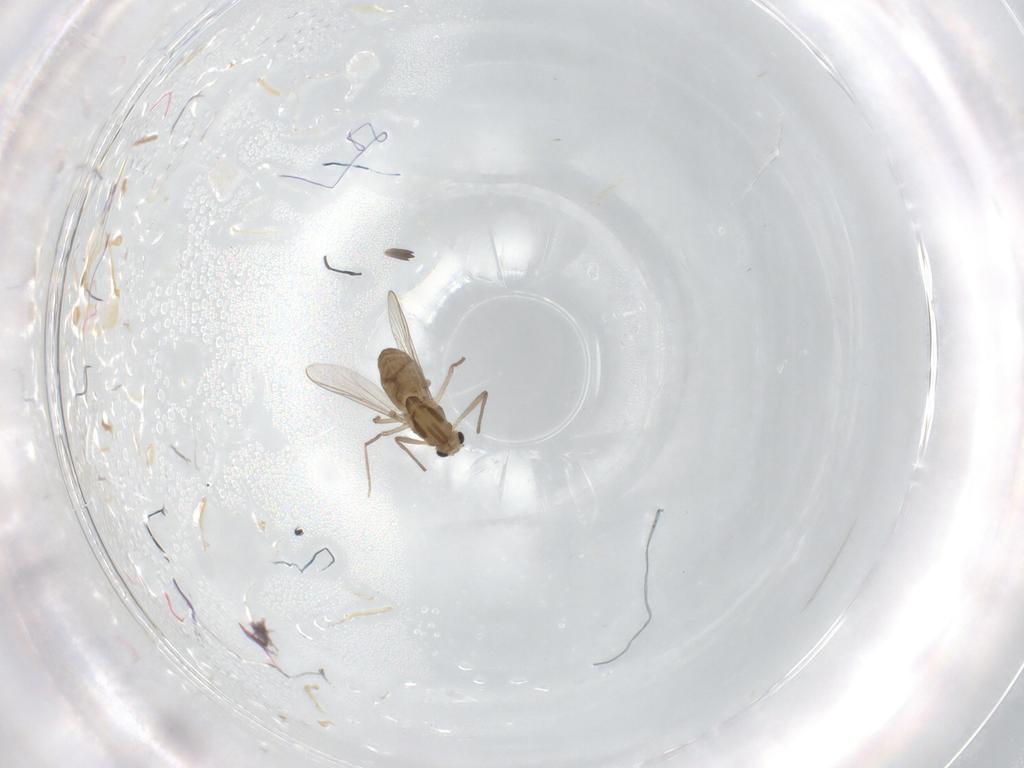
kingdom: Animalia
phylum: Arthropoda
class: Insecta
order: Diptera
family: Chironomidae
